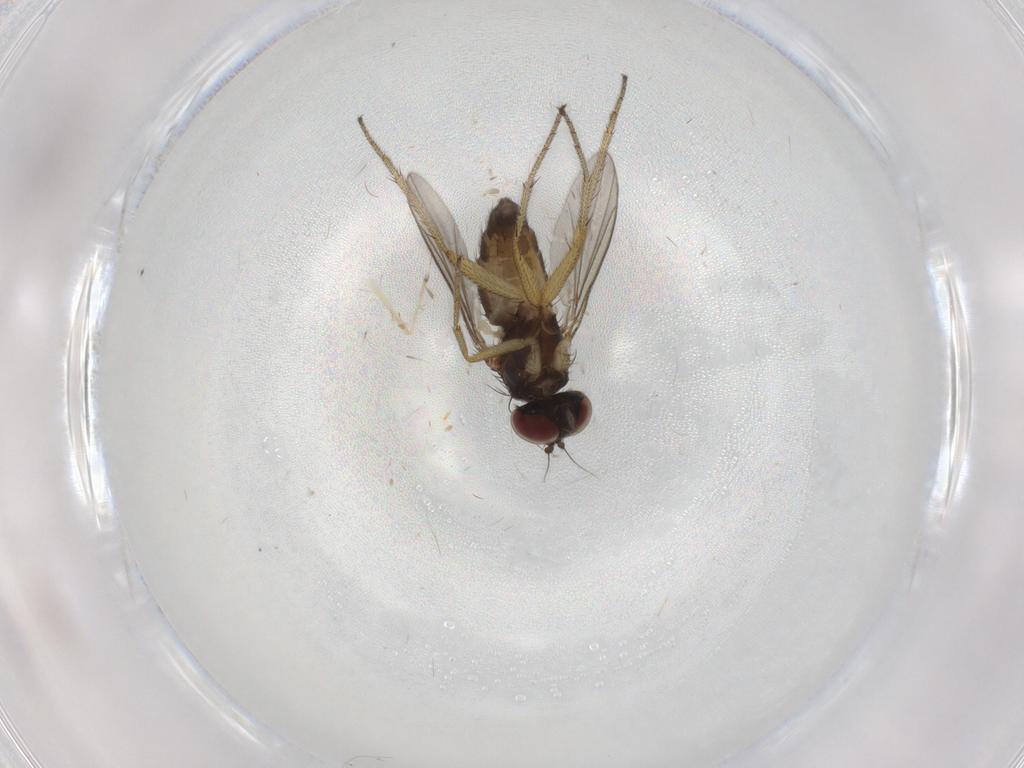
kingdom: Animalia
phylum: Arthropoda
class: Insecta
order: Diptera
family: Dolichopodidae
